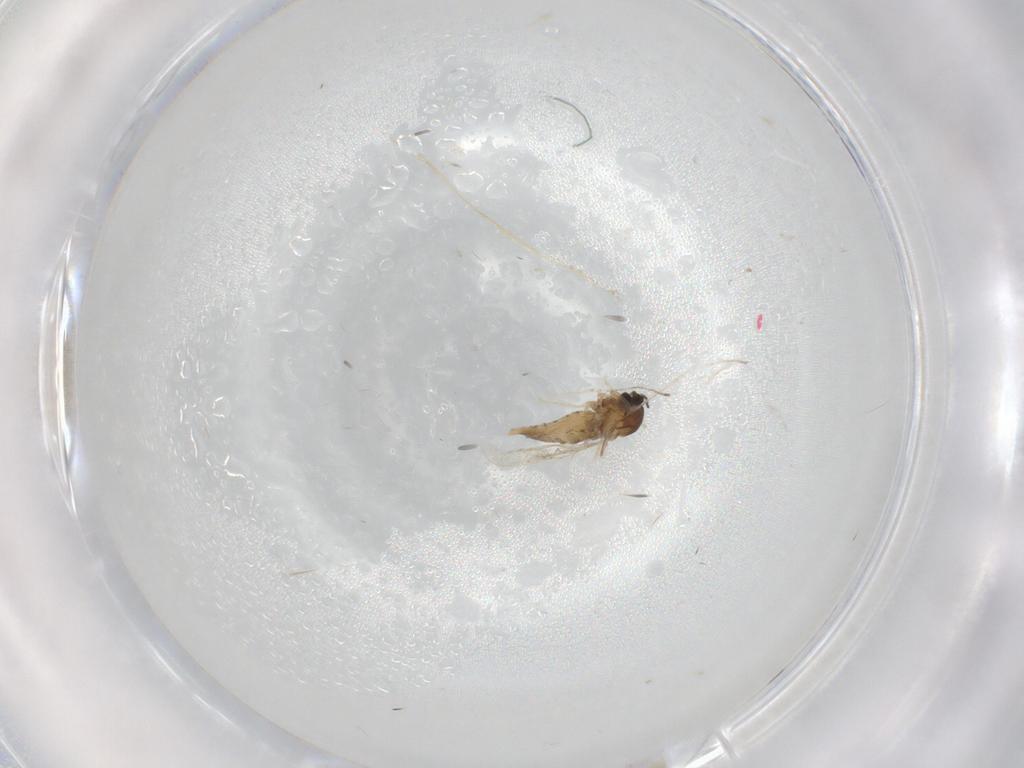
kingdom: Animalia
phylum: Arthropoda
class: Insecta
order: Diptera
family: Cecidomyiidae
